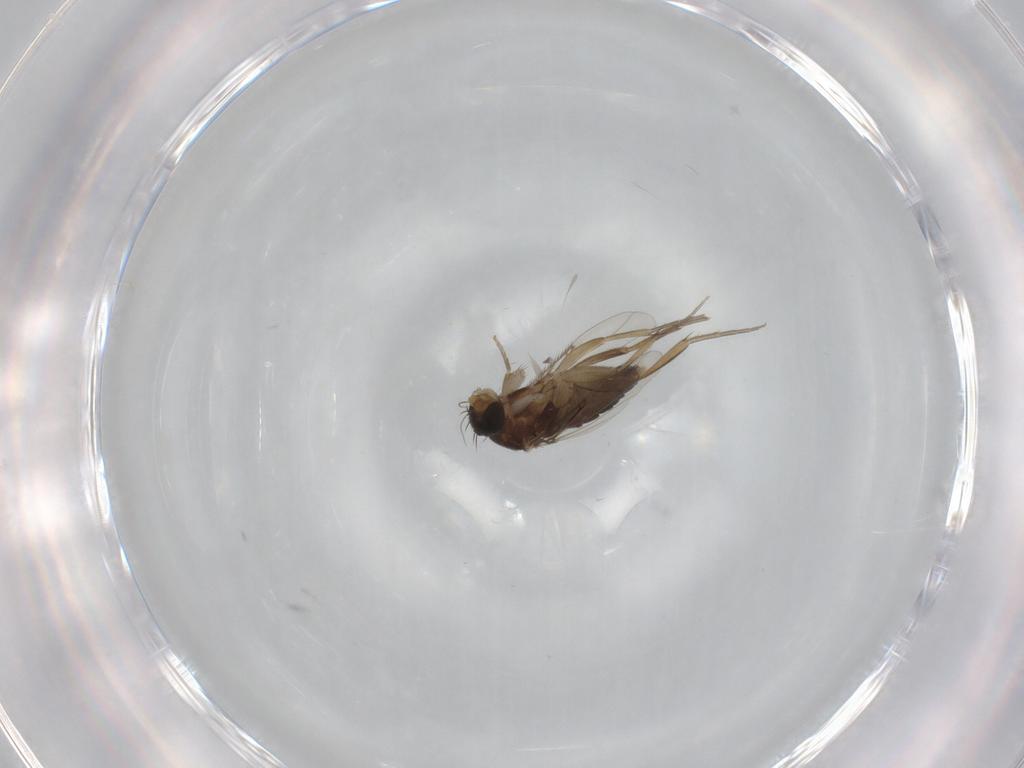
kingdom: Animalia
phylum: Arthropoda
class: Insecta
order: Diptera
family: Phoridae
